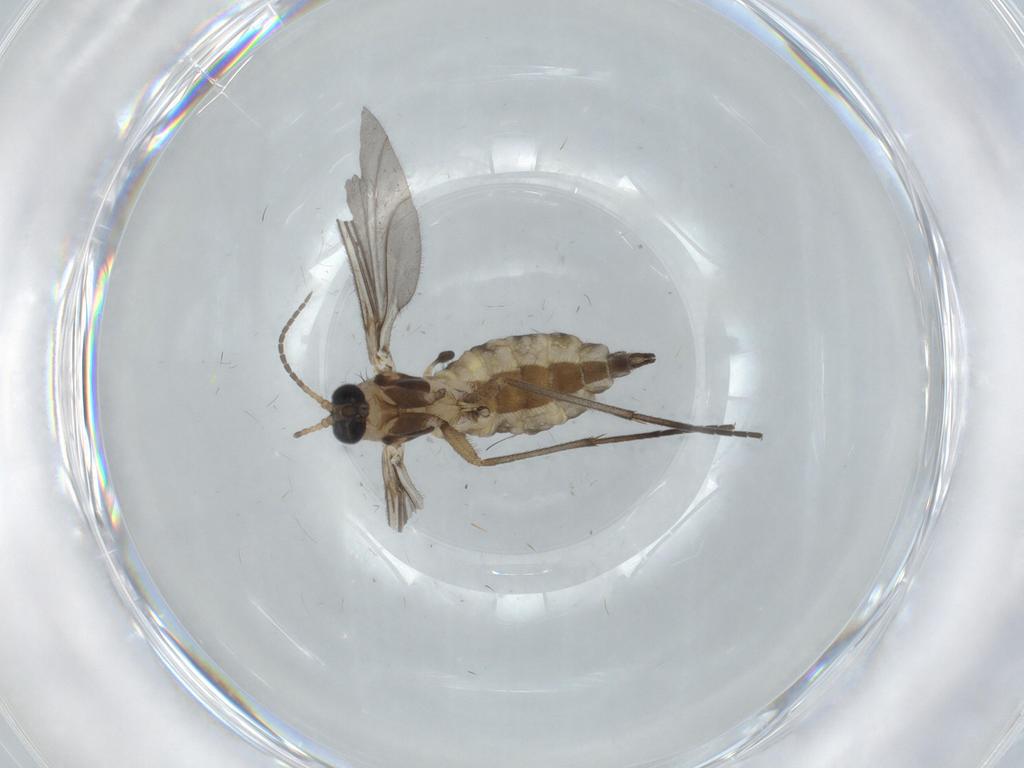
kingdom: Animalia
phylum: Arthropoda
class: Insecta
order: Diptera
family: Sciaridae
